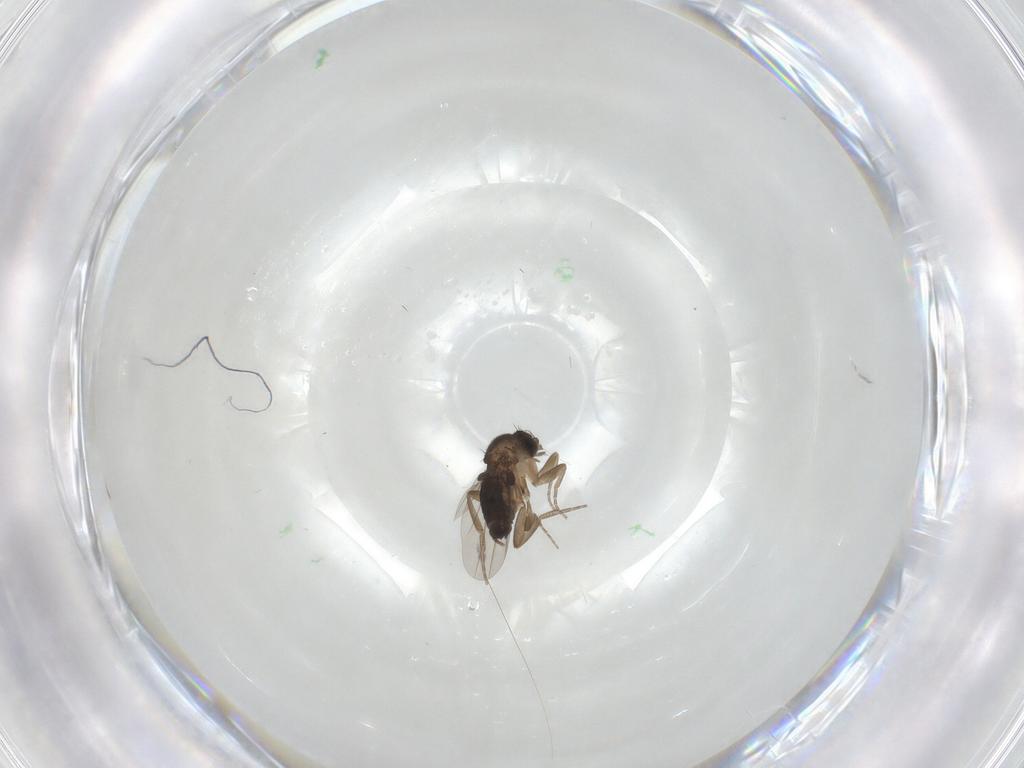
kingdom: Animalia
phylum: Arthropoda
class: Insecta
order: Diptera
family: Phoridae
